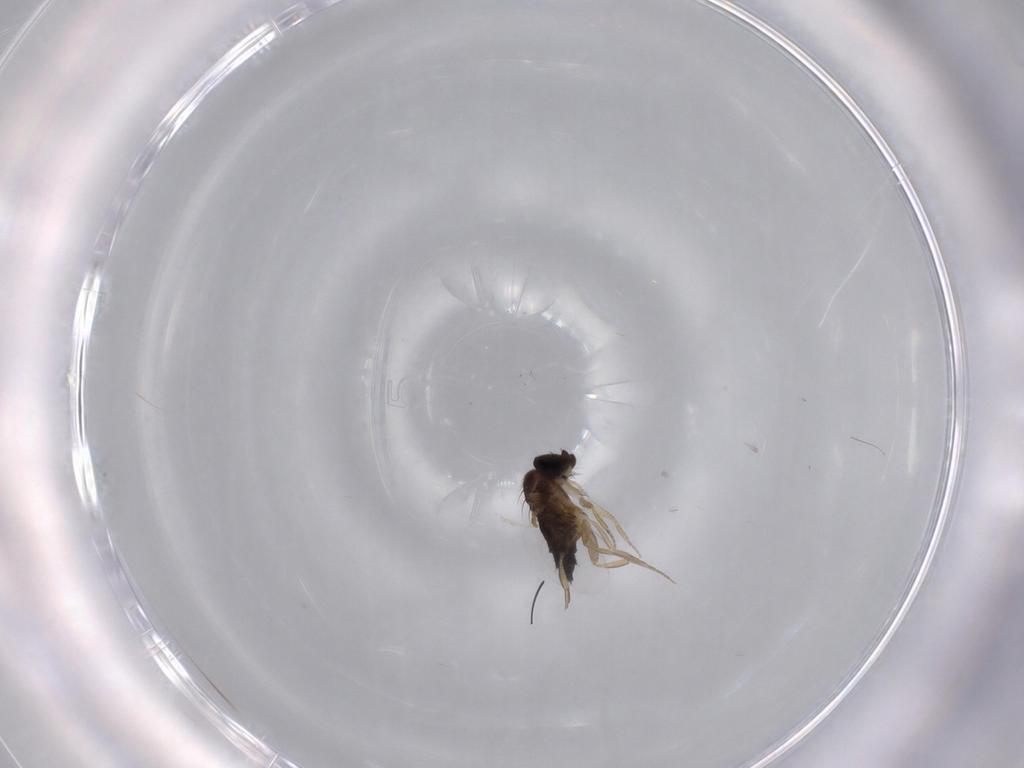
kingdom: Animalia
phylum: Arthropoda
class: Insecta
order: Diptera
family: Phoridae
